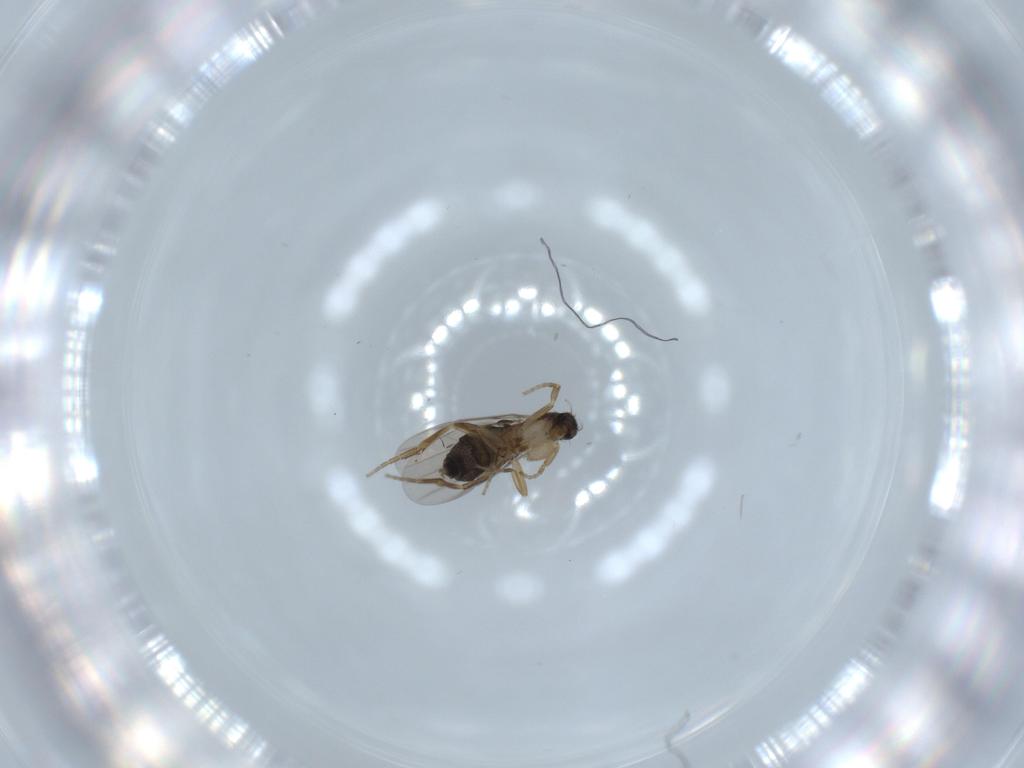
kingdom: Animalia
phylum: Arthropoda
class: Insecta
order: Diptera
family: Phoridae
